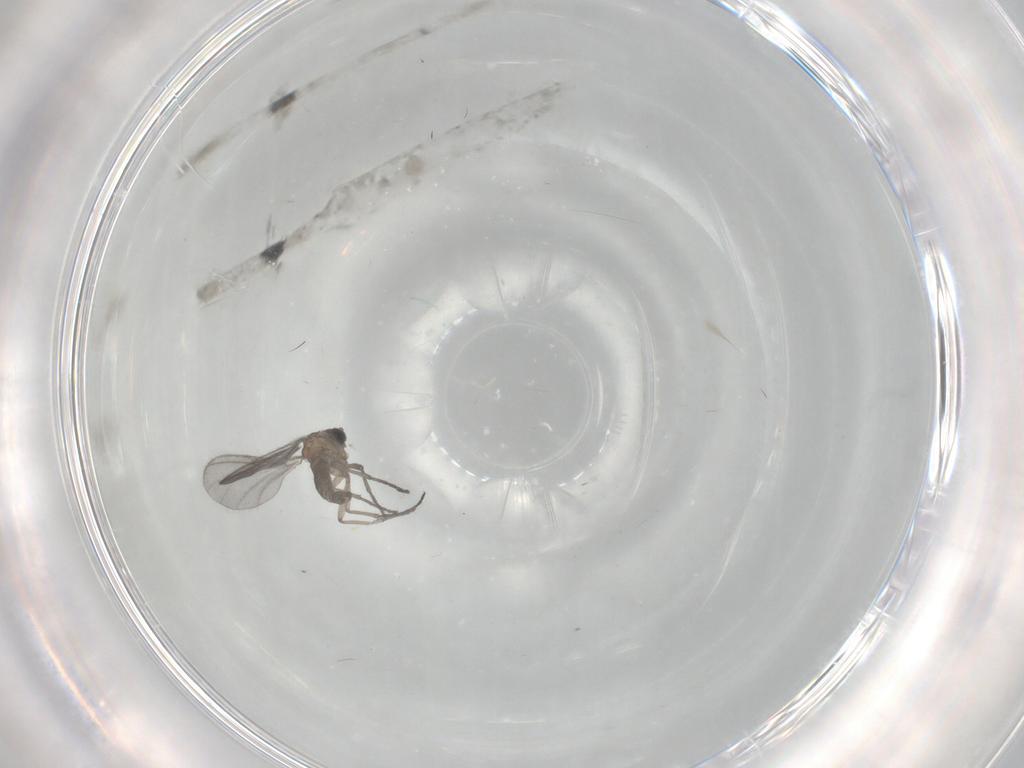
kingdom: Animalia
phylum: Arthropoda
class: Insecta
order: Diptera
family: Sciaridae
